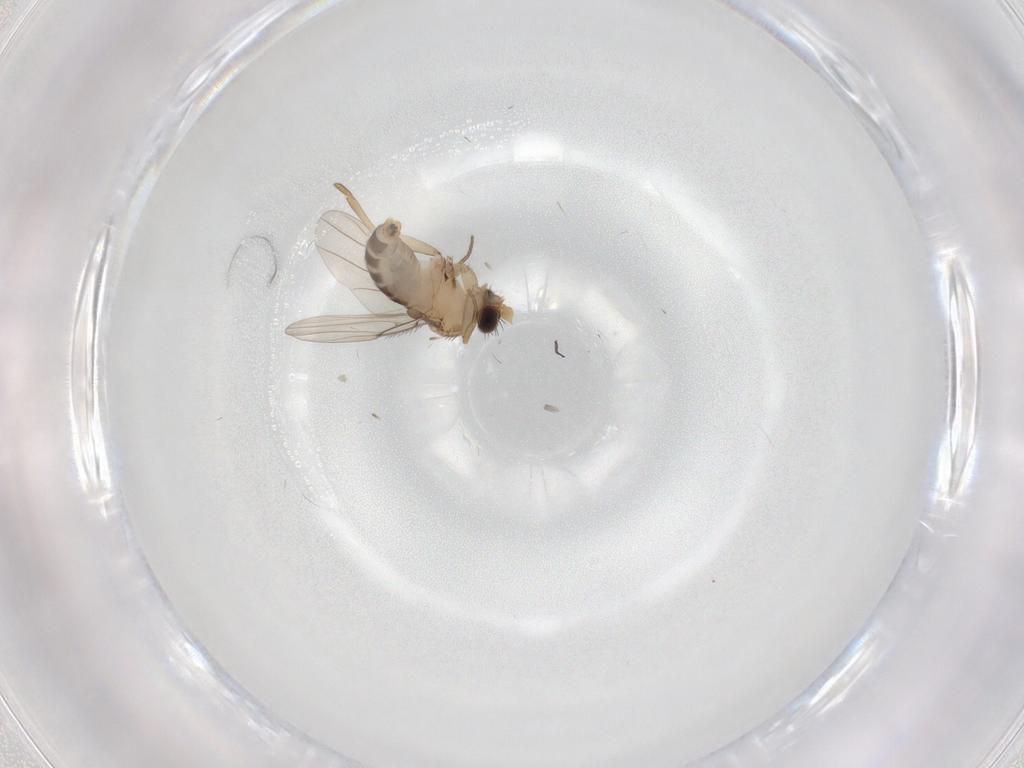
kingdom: Animalia
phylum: Arthropoda
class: Insecta
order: Diptera
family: Phoridae
